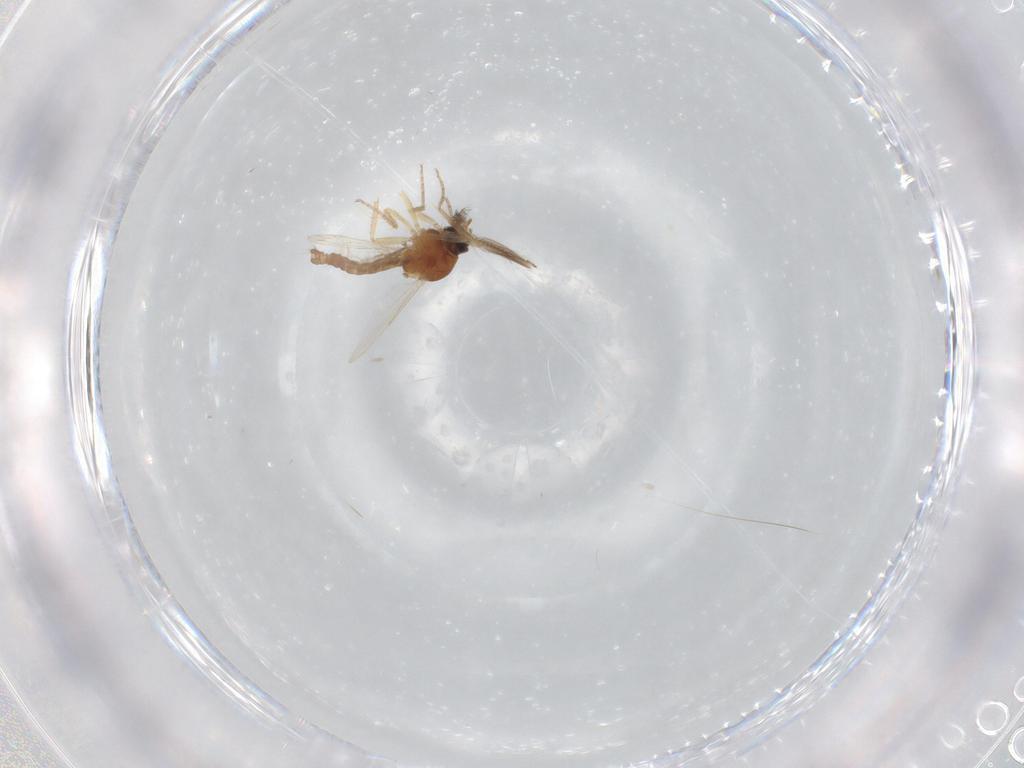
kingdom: Animalia
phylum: Arthropoda
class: Insecta
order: Diptera
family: Ceratopogonidae
